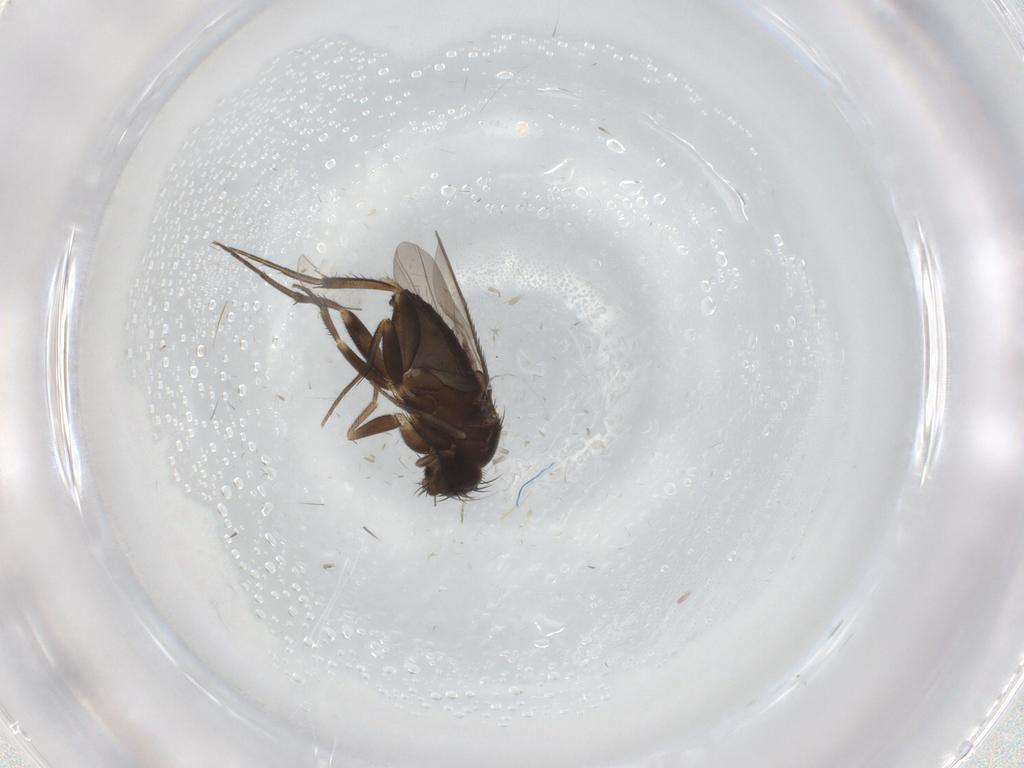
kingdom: Animalia
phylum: Arthropoda
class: Insecta
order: Diptera
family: Phoridae
